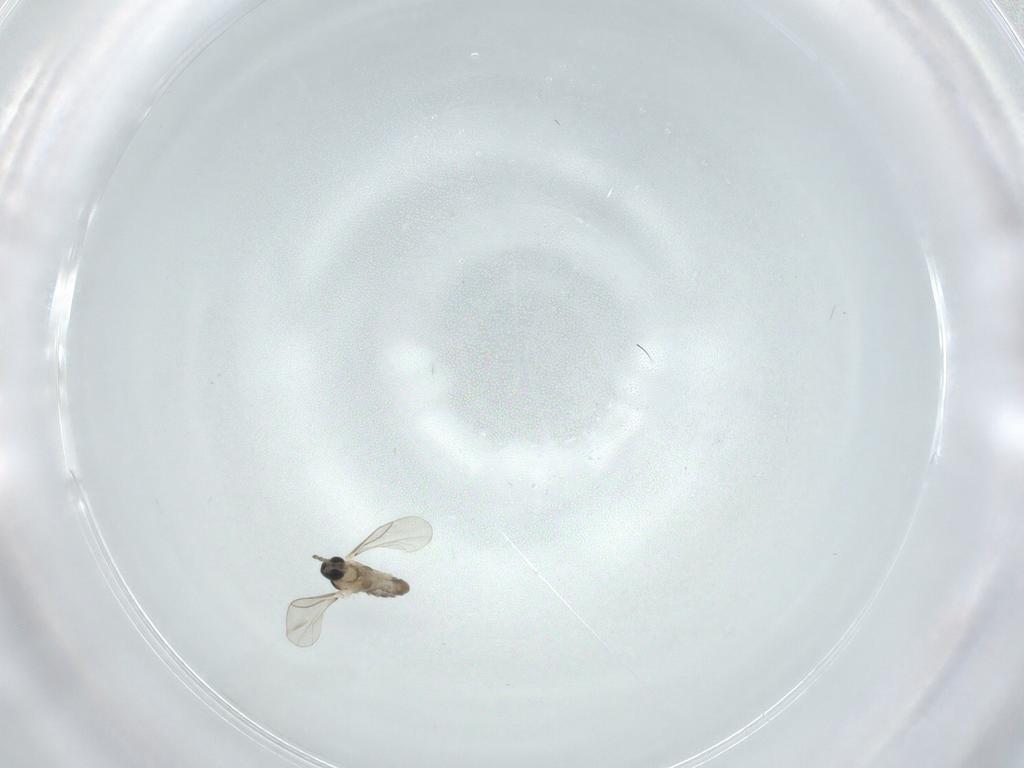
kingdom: Animalia
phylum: Arthropoda
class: Insecta
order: Diptera
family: Cecidomyiidae
